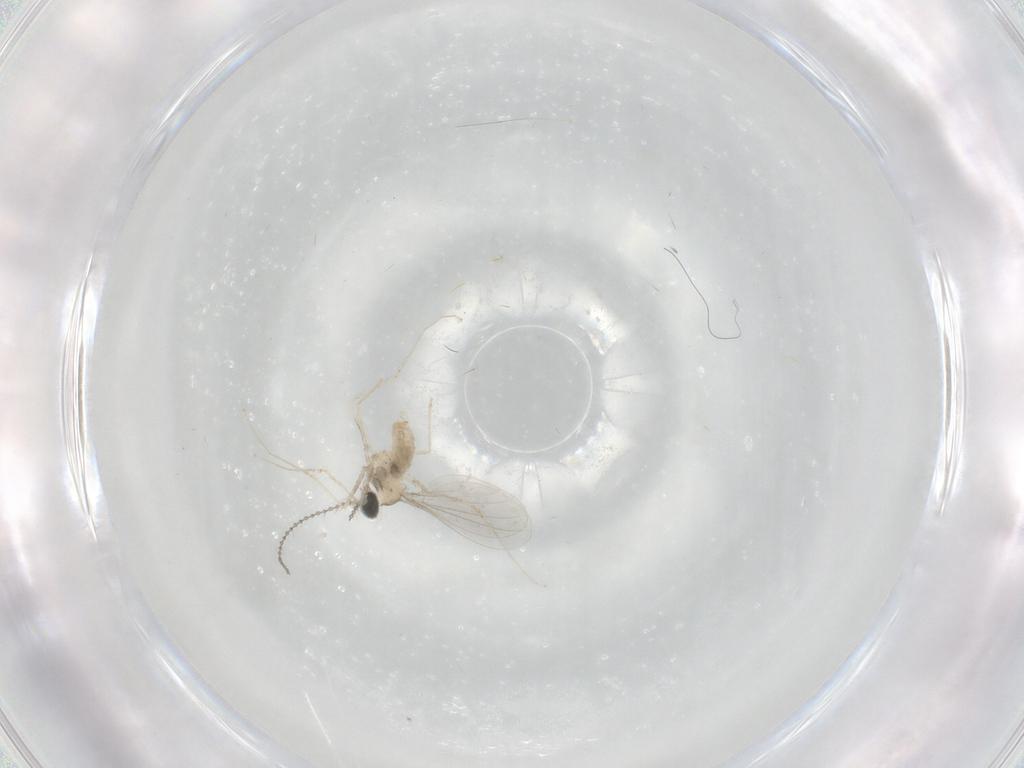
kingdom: Animalia
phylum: Arthropoda
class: Insecta
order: Diptera
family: Cecidomyiidae
